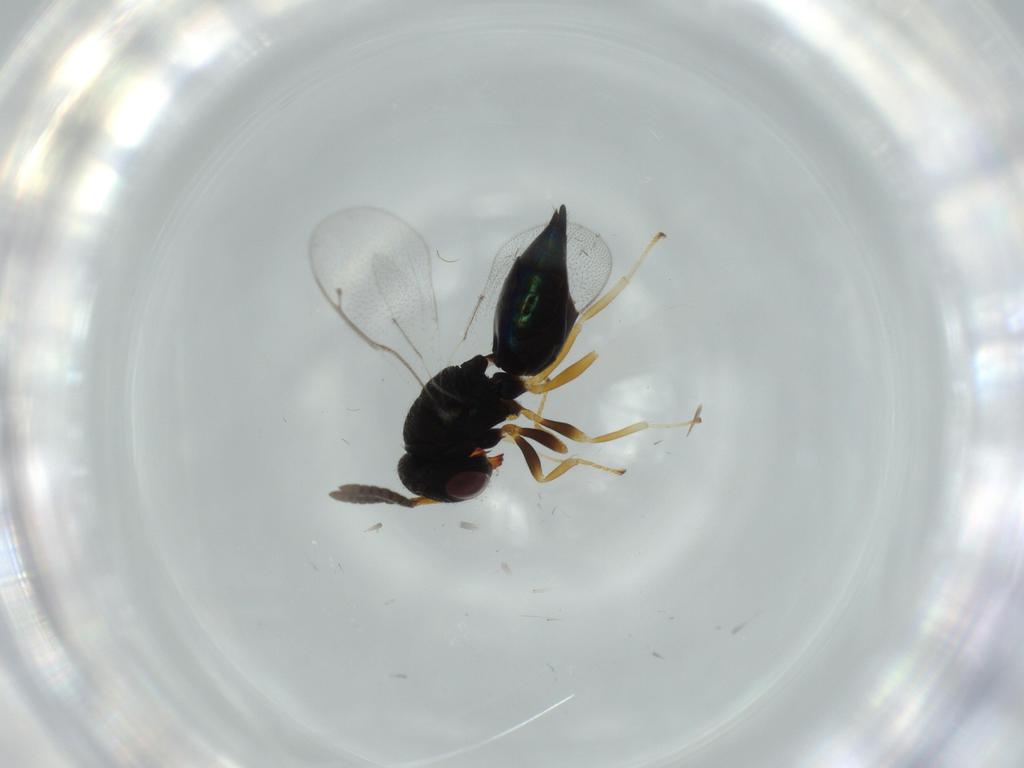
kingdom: Animalia
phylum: Arthropoda
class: Insecta
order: Hymenoptera
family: Pteromalidae
